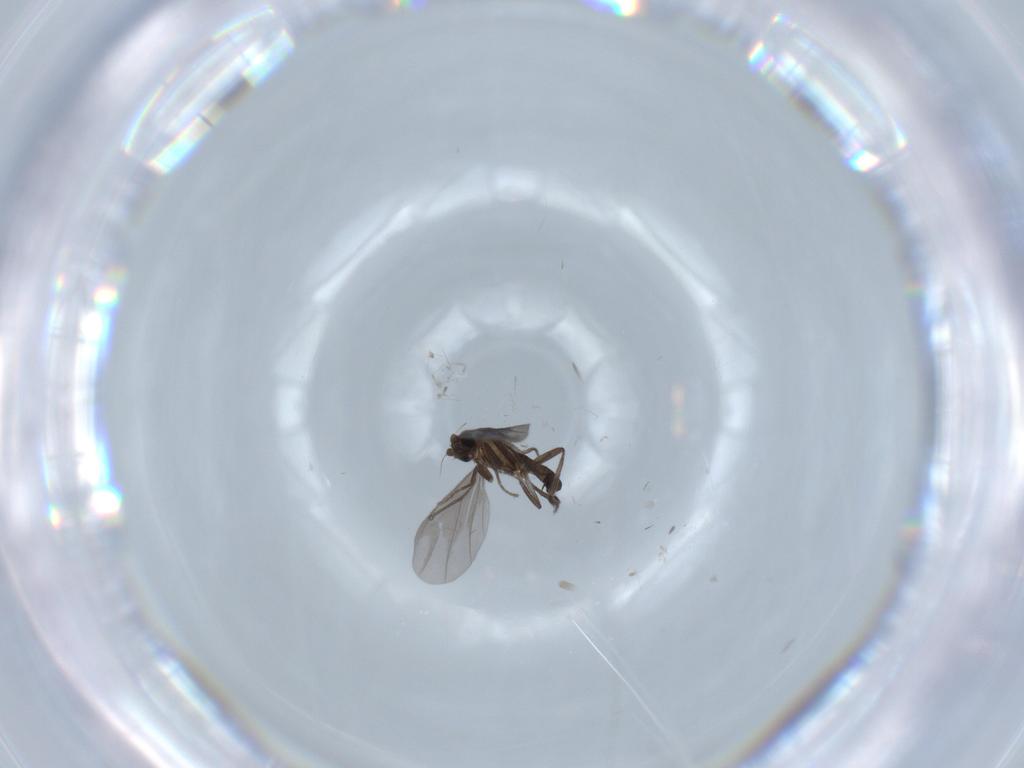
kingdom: Animalia
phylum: Arthropoda
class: Insecta
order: Diptera
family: Phoridae
